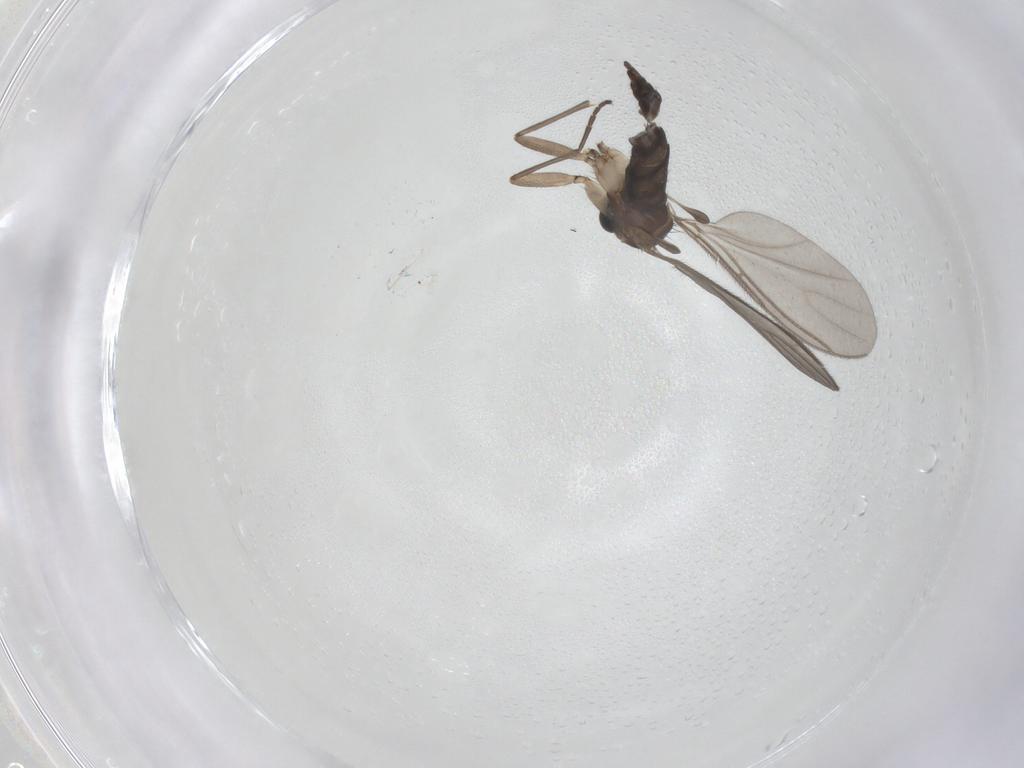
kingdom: Animalia
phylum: Arthropoda
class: Insecta
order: Diptera
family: Sciaridae
